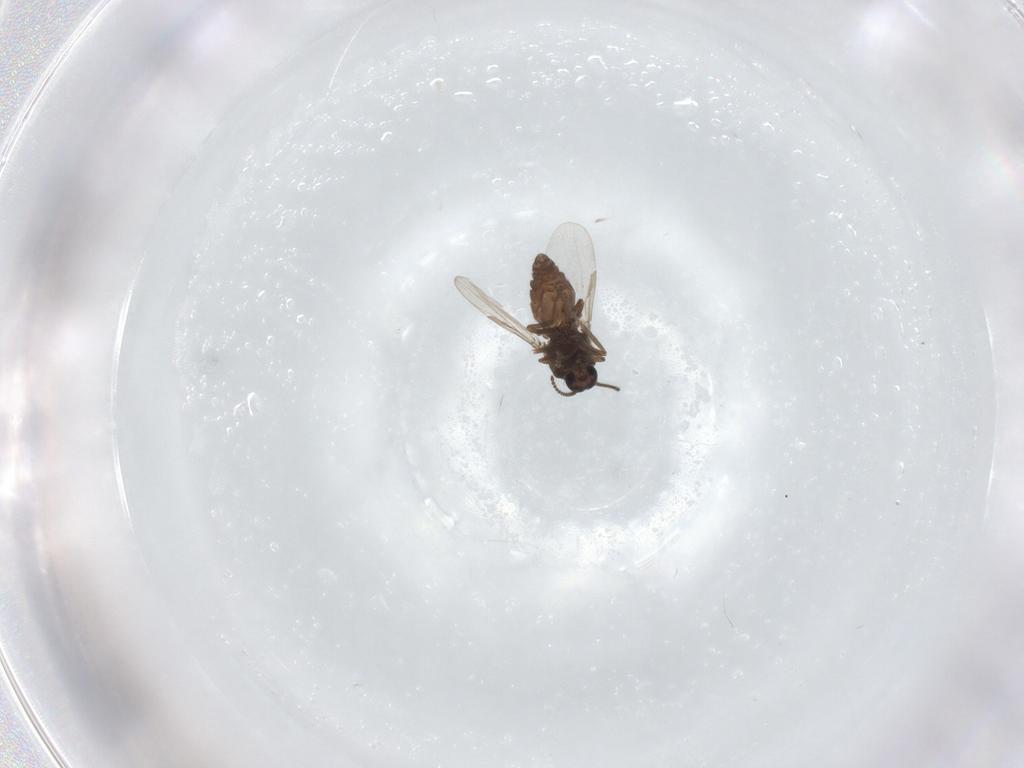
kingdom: Animalia
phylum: Arthropoda
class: Insecta
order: Diptera
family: Ceratopogonidae
